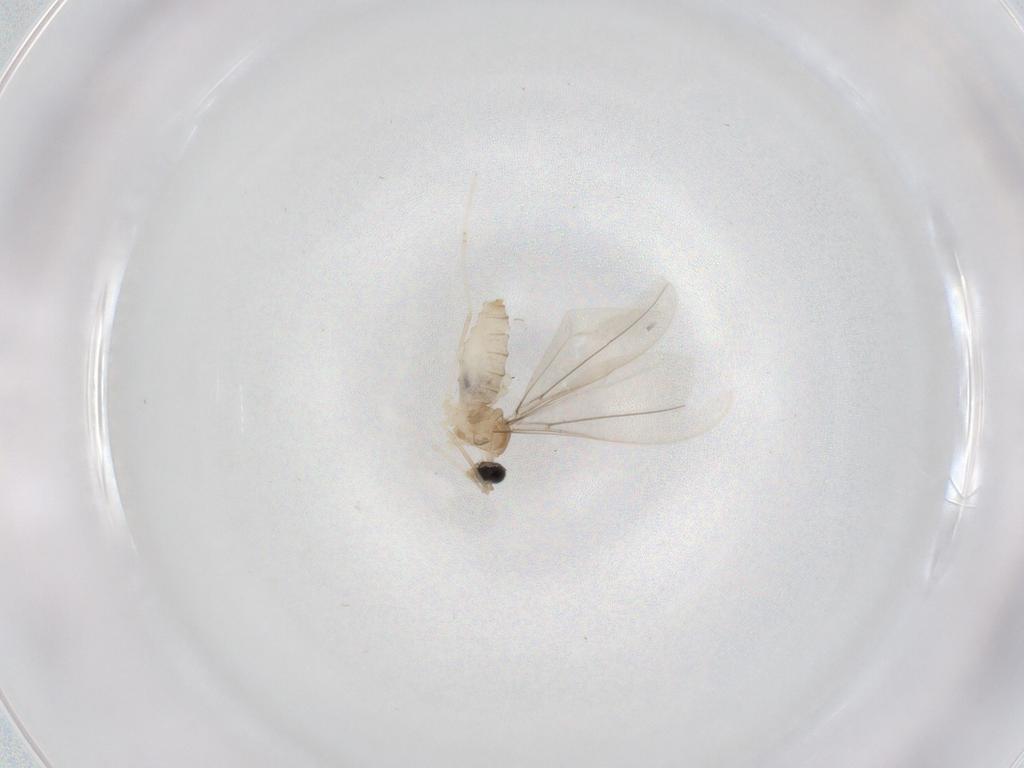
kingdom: Animalia
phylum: Arthropoda
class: Insecta
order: Diptera
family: Cecidomyiidae
